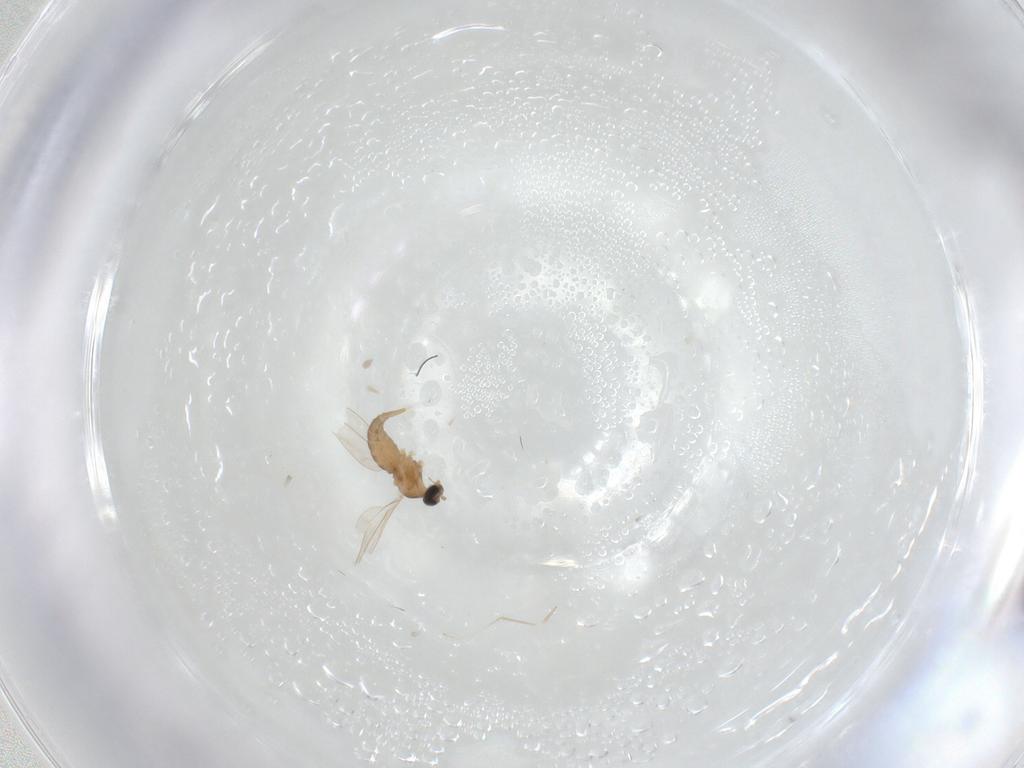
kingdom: Animalia
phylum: Arthropoda
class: Insecta
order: Diptera
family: Cecidomyiidae
